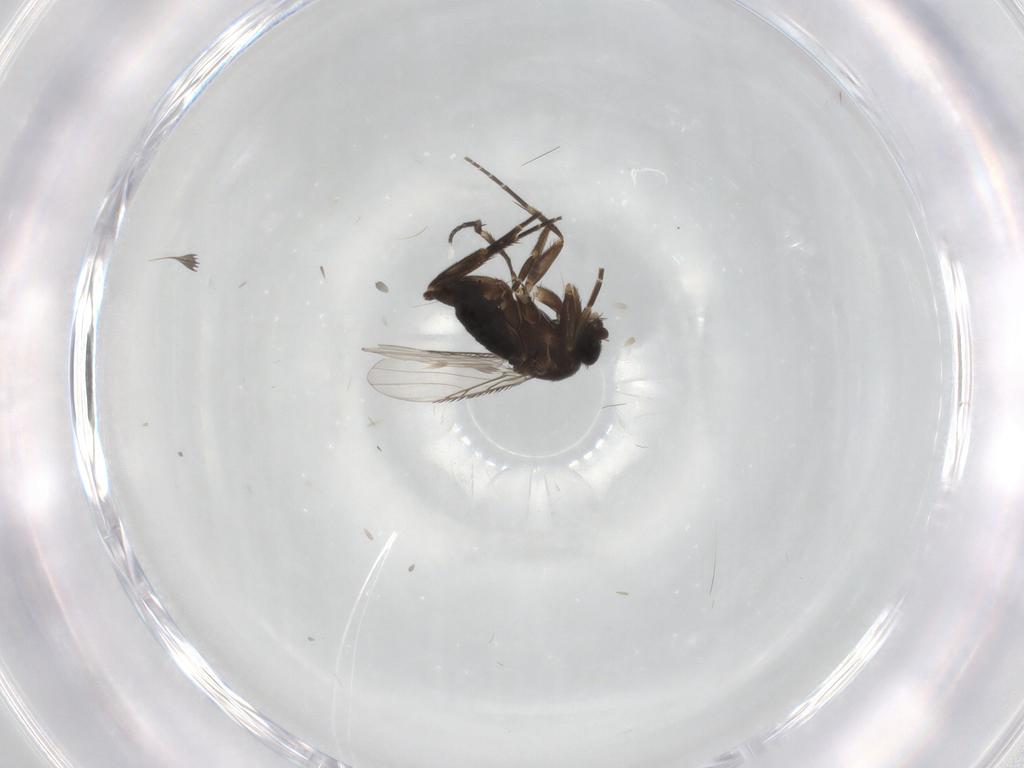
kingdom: Animalia
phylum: Arthropoda
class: Insecta
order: Diptera
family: Phoridae
